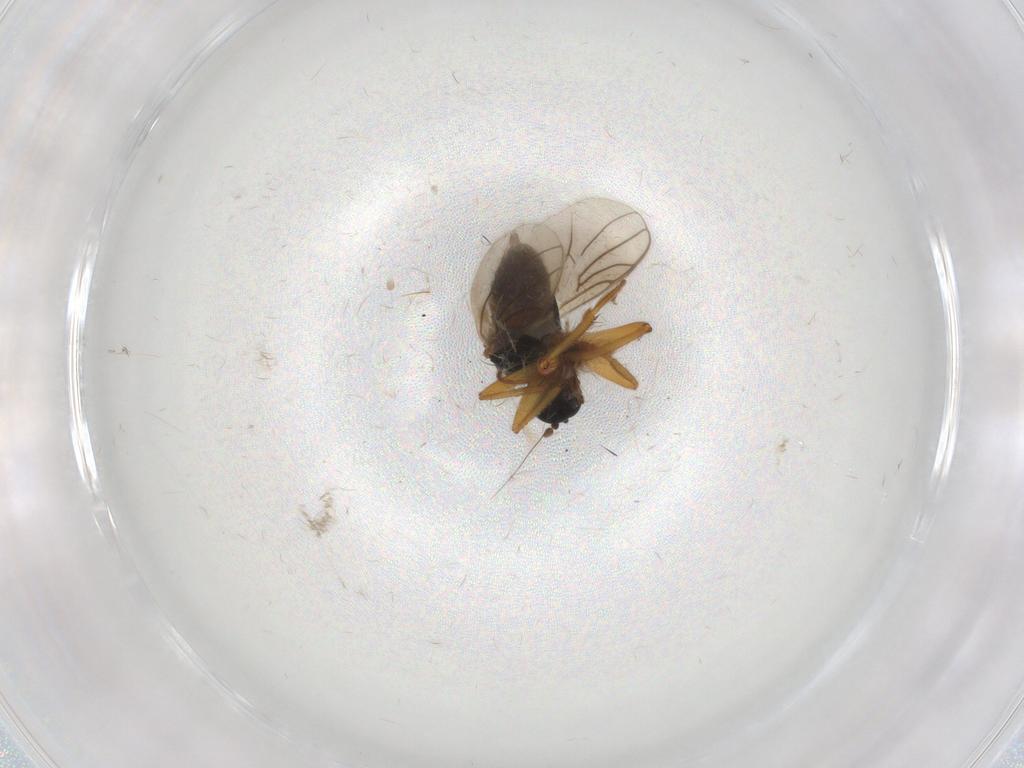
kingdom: Animalia
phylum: Arthropoda
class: Insecta
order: Diptera
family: Hybotidae
